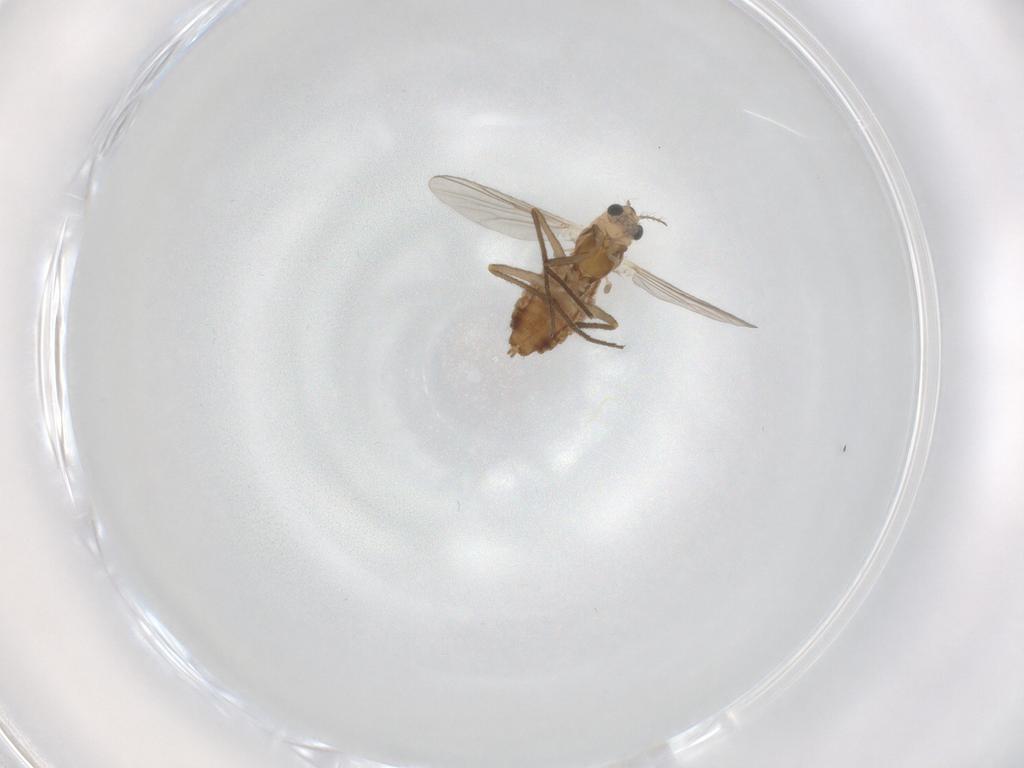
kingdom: Animalia
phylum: Arthropoda
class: Insecta
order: Diptera
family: Chironomidae
